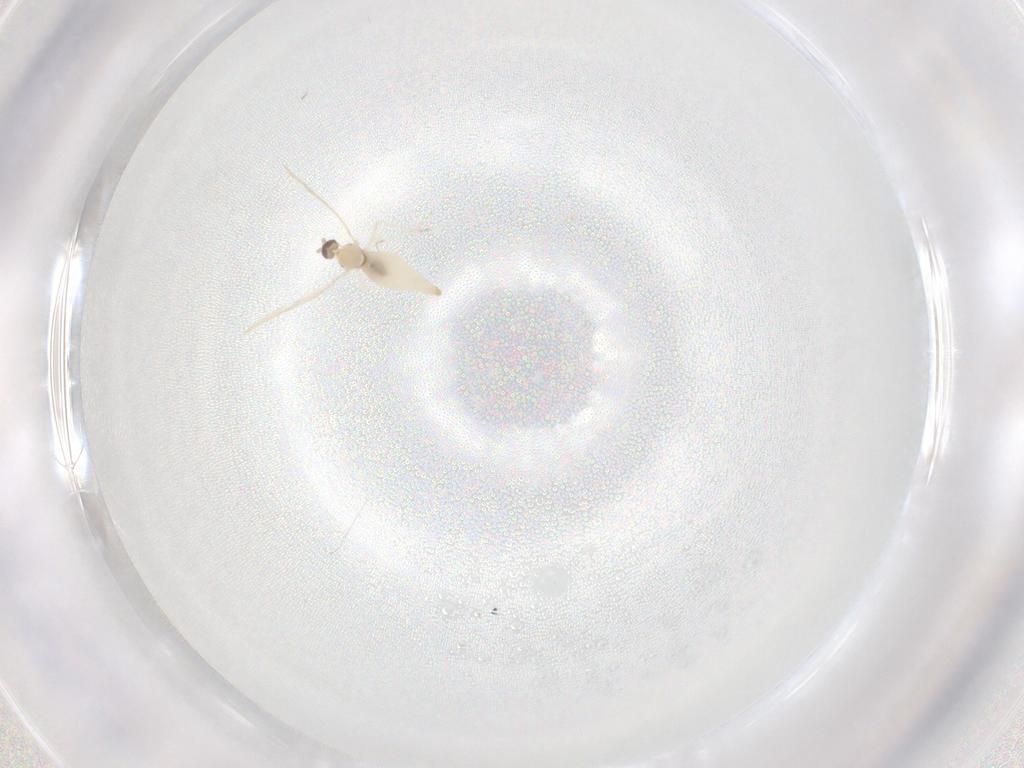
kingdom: Animalia
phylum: Arthropoda
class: Insecta
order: Diptera
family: Cecidomyiidae
